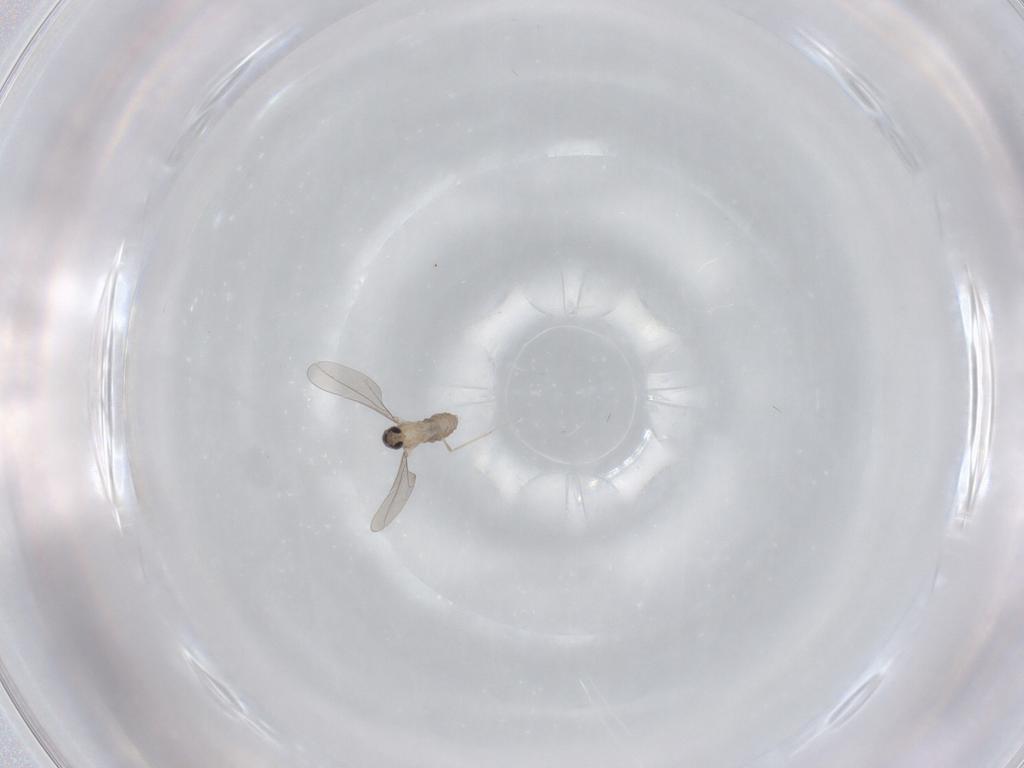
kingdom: Animalia
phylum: Arthropoda
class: Insecta
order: Diptera
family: Cecidomyiidae
